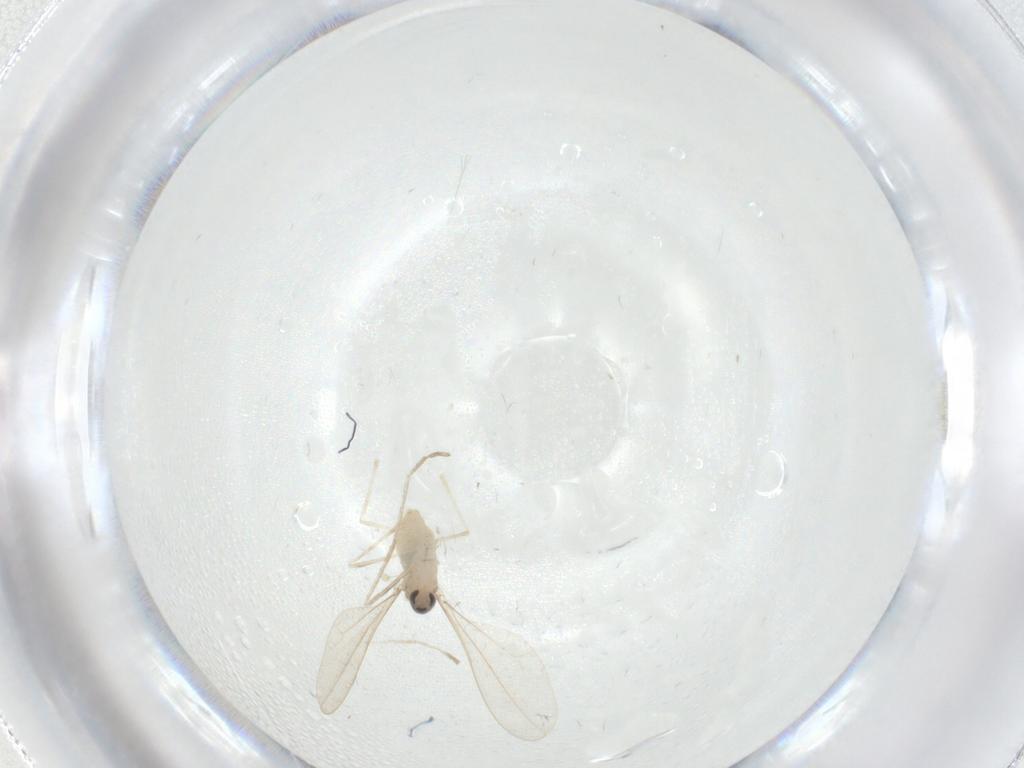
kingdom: Animalia
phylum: Arthropoda
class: Insecta
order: Diptera
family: Cecidomyiidae
